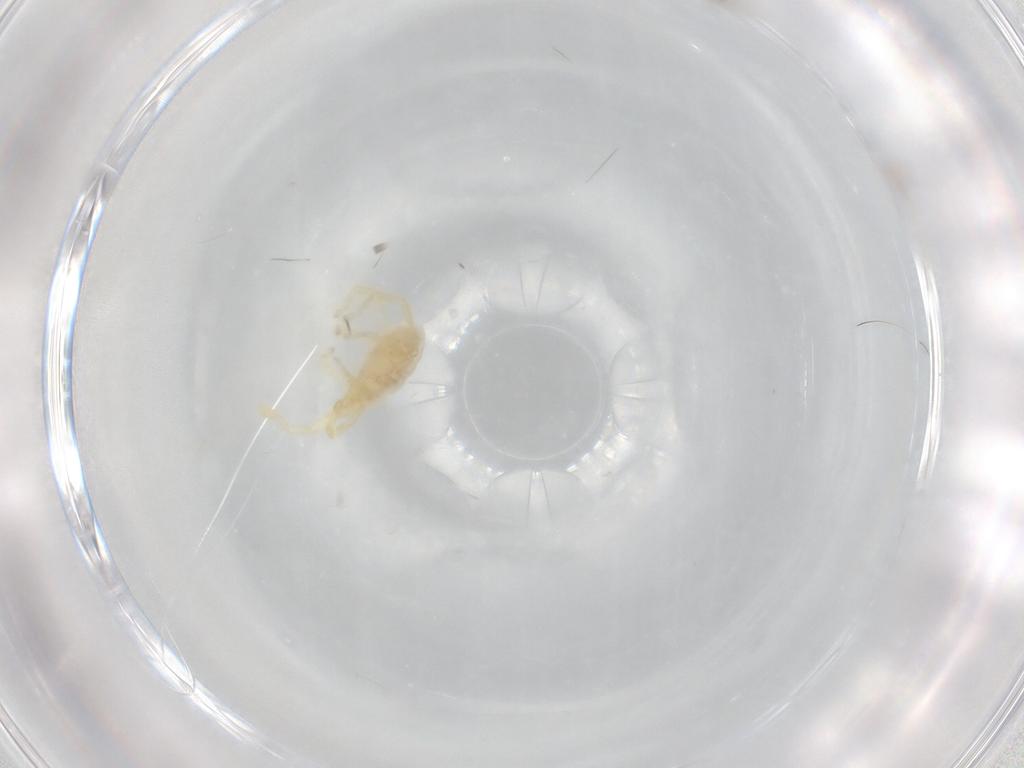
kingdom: Animalia
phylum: Arthropoda
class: Arachnida
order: Trombidiformes
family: Erythraeidae
